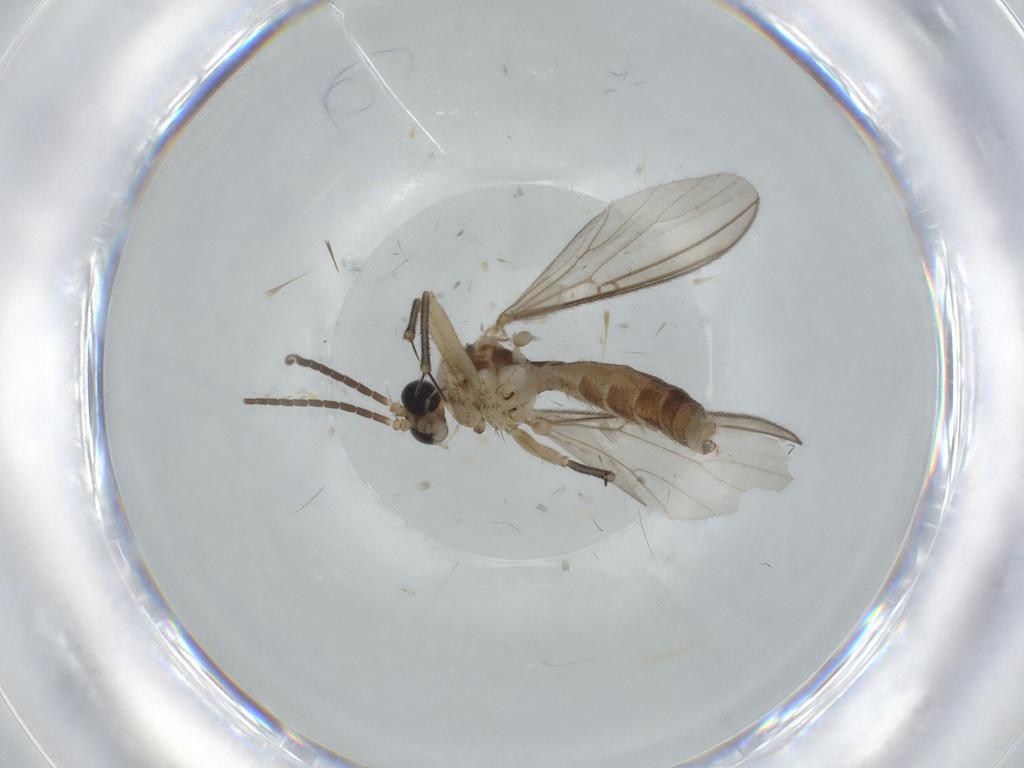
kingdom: Animalia
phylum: Arthropoda
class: Insecta
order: Diptera
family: Mycetophilidae
